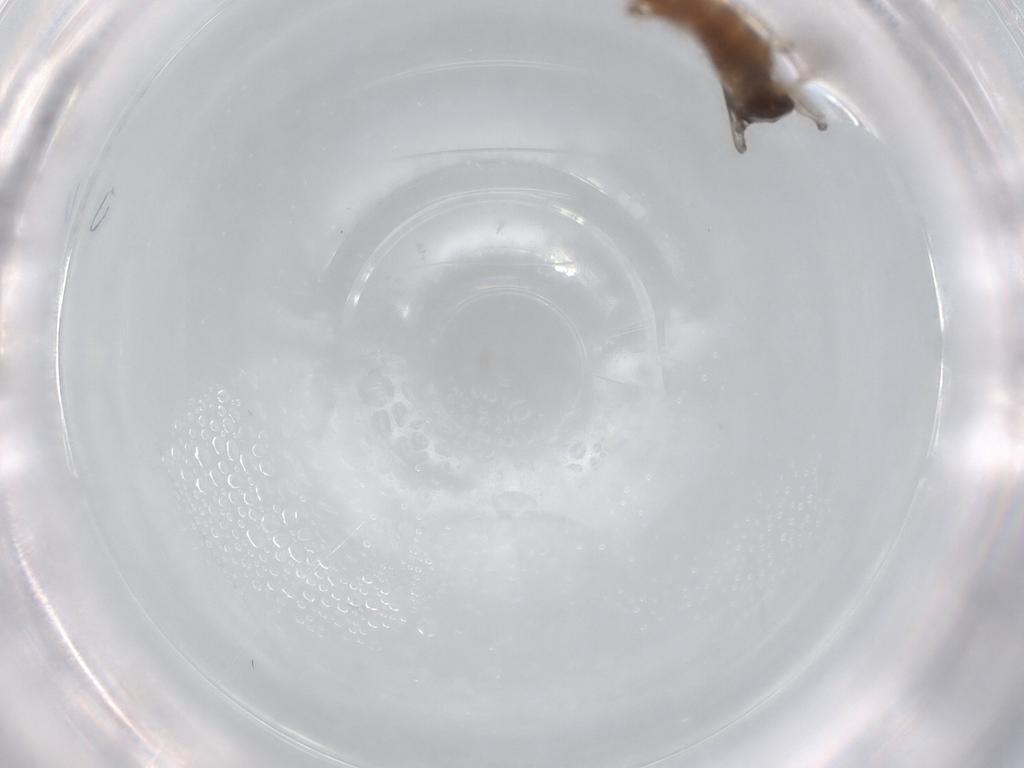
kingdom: Animalia
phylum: Arthropoda
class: Insecta
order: Diptera
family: Cecidomyiidae
